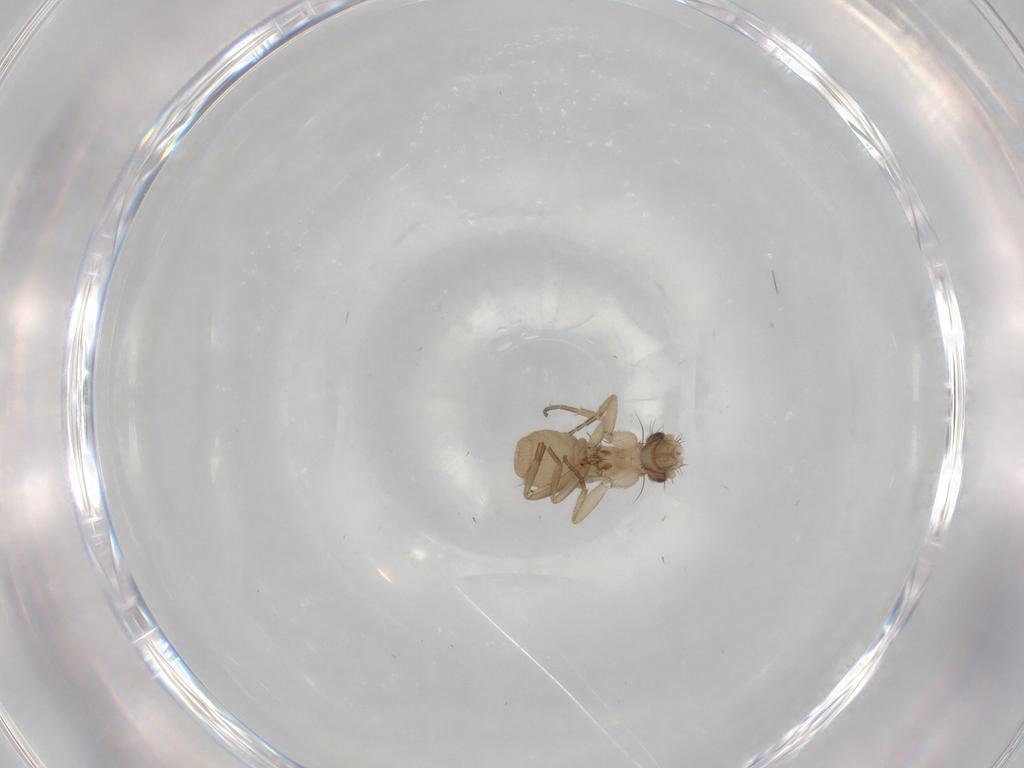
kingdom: Animalia
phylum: Arthropoda
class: Insecta
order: Diptera
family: Phoridae
